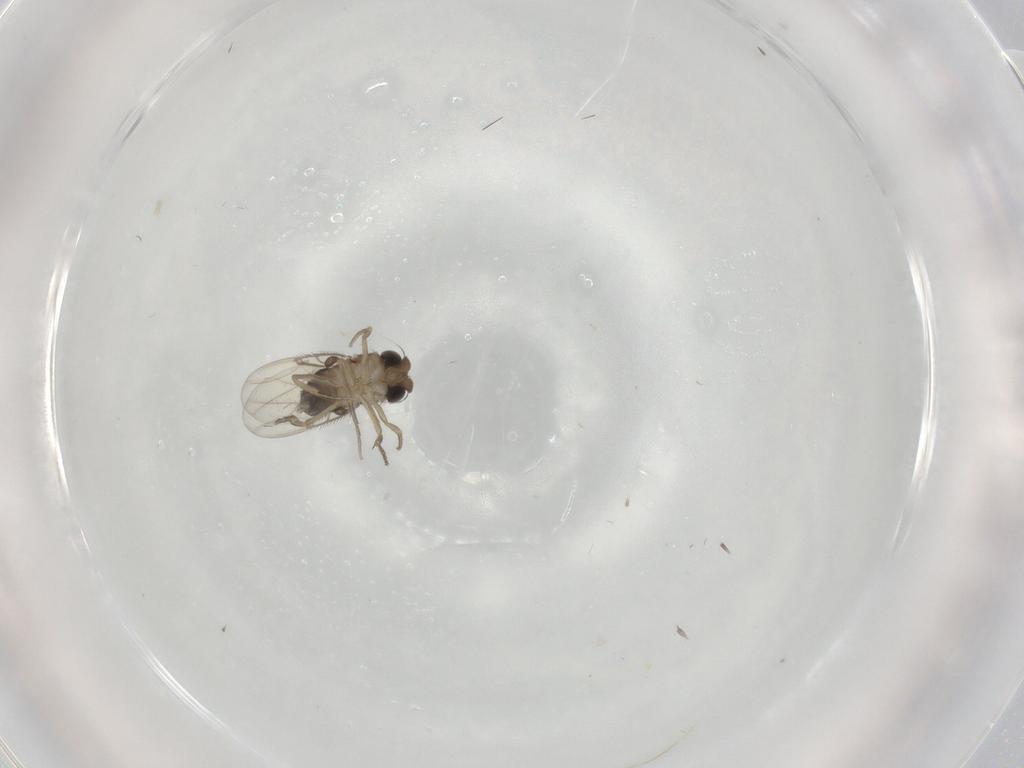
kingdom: Animalia
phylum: Arthropoda
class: Insecta
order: Diptera
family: Phoridae
